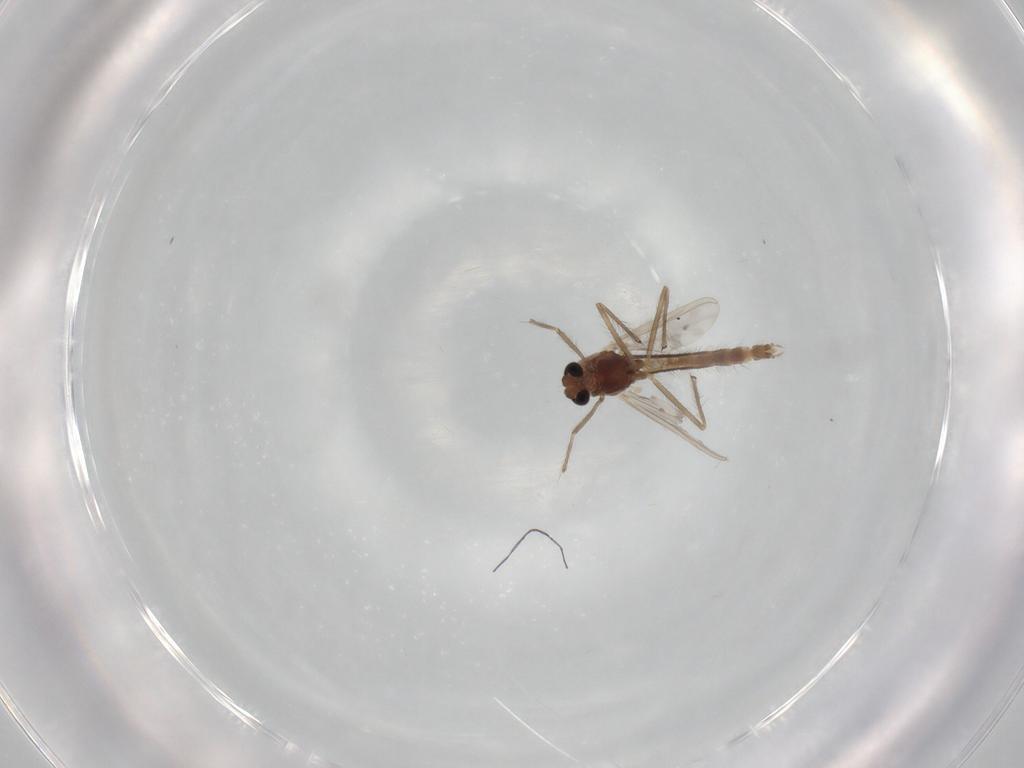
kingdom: Animalia
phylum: Arthropoda
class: Insecta
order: Diptera
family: Chironomidae
